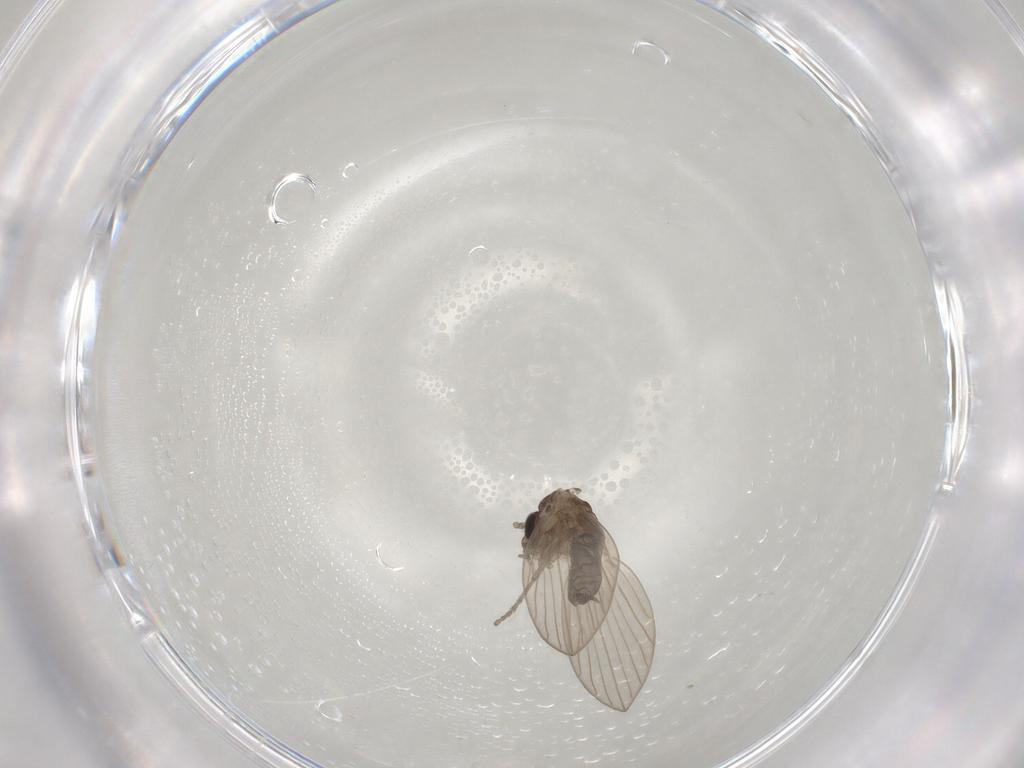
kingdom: Animalia
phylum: Arthropoda
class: Insecta
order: Diptera
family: Psychodidae
